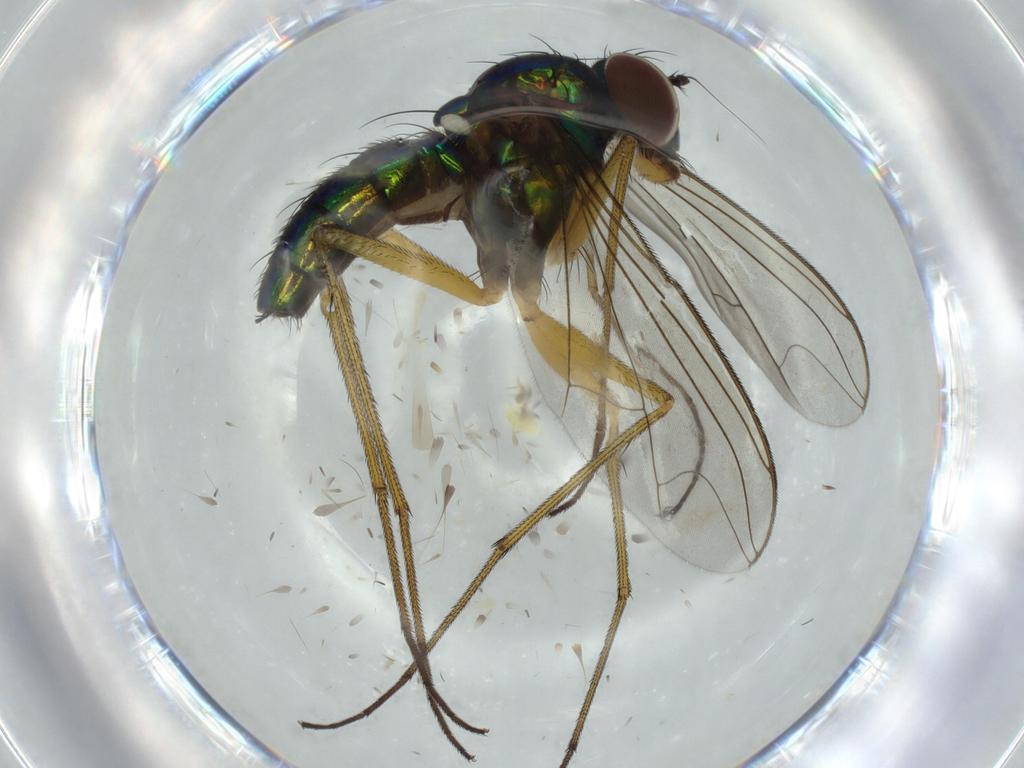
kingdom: Animalia
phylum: Arthropoda
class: Insecta
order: Diptera
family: Dolichopodidae
